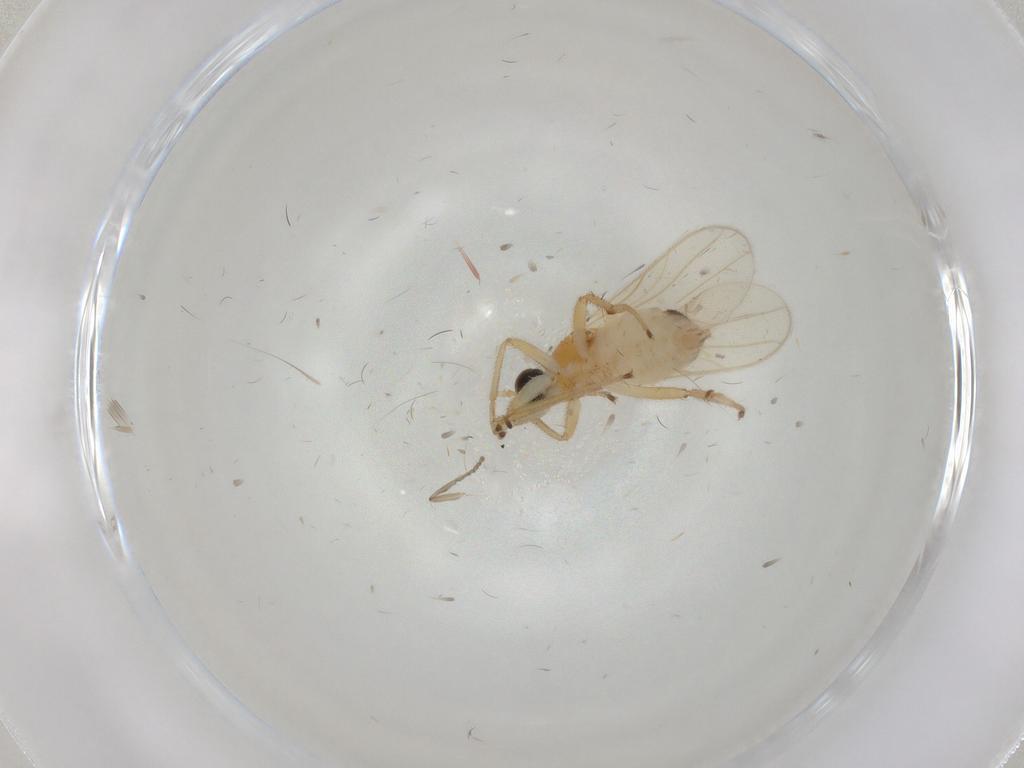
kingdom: Animalia
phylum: Arthropoda
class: Insecta
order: Diptera
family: Hybotidae
